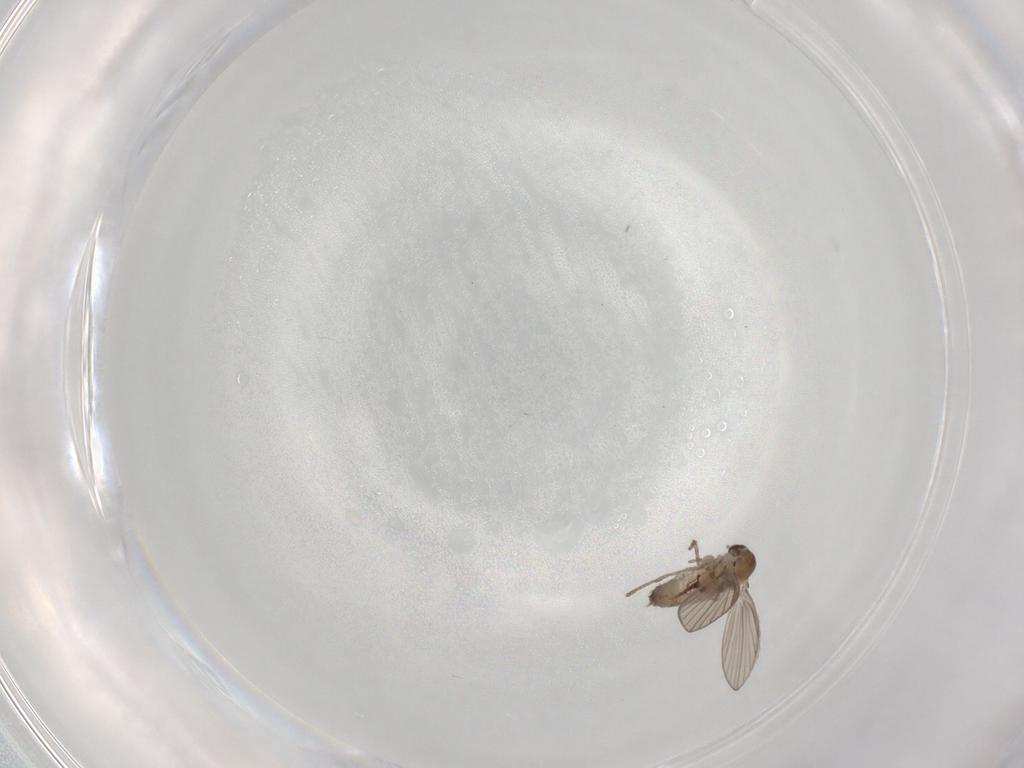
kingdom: Animalia
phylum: Arthropoda
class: Insecta
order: Diptera
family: Psychodidae
